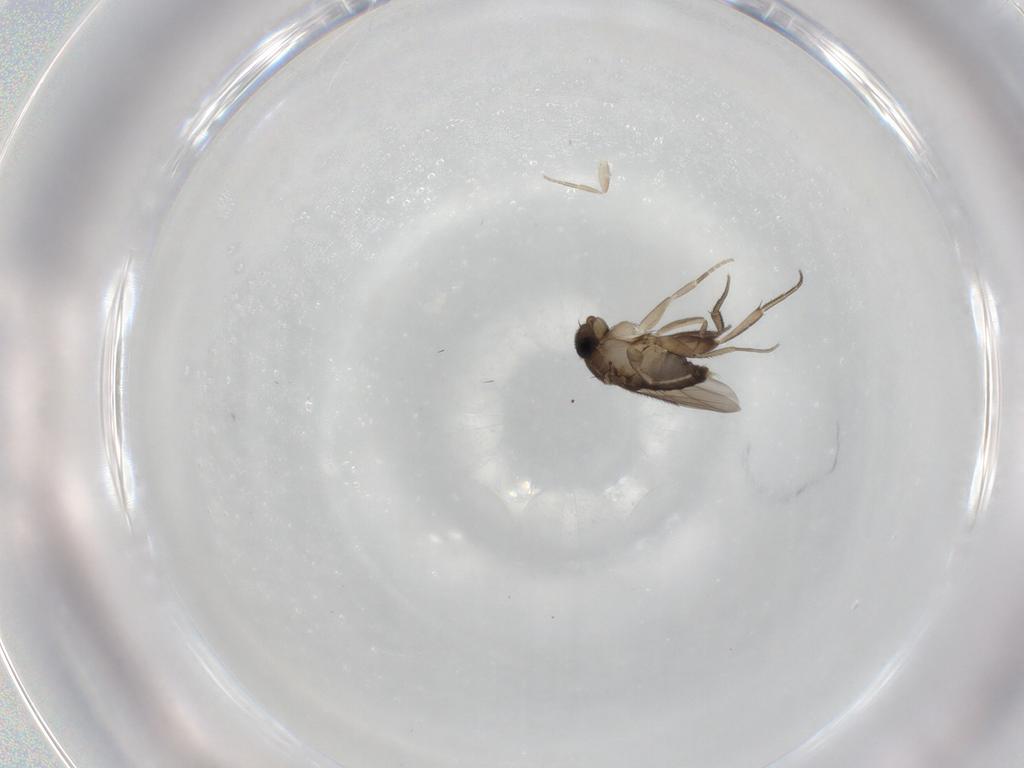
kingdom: Animalia
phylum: Arthropoda
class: Insecta
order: Diptera
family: Phoridae
